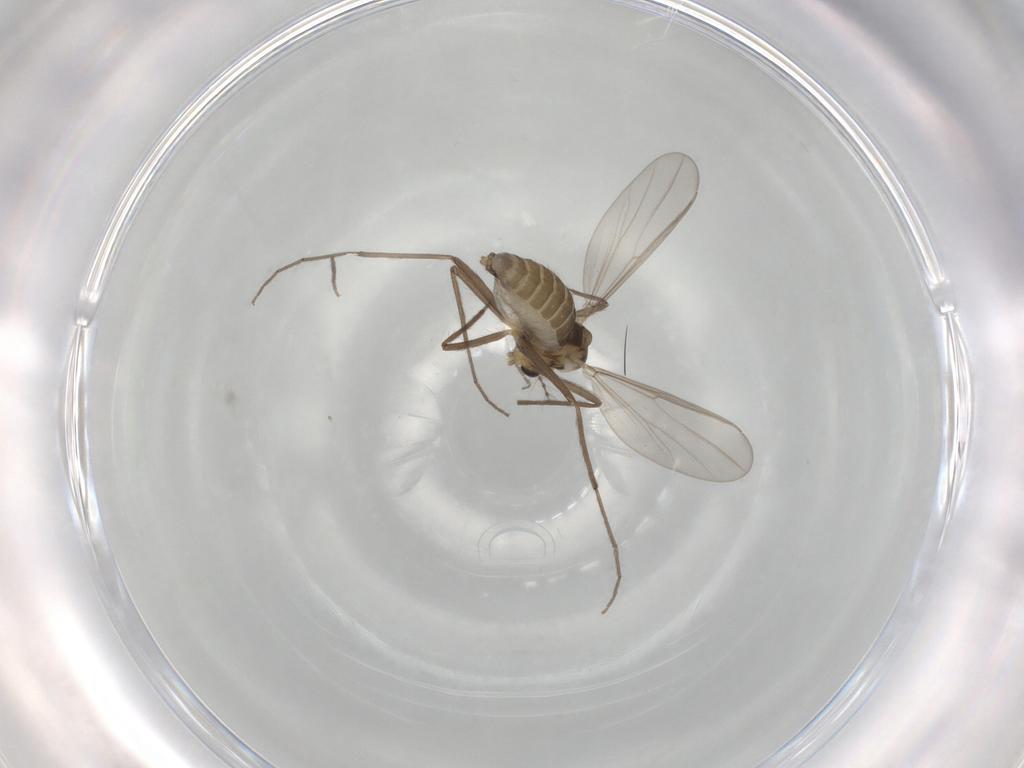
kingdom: Animalia
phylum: Arthropoda
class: Insecta
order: Diptera
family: Chironomidae
